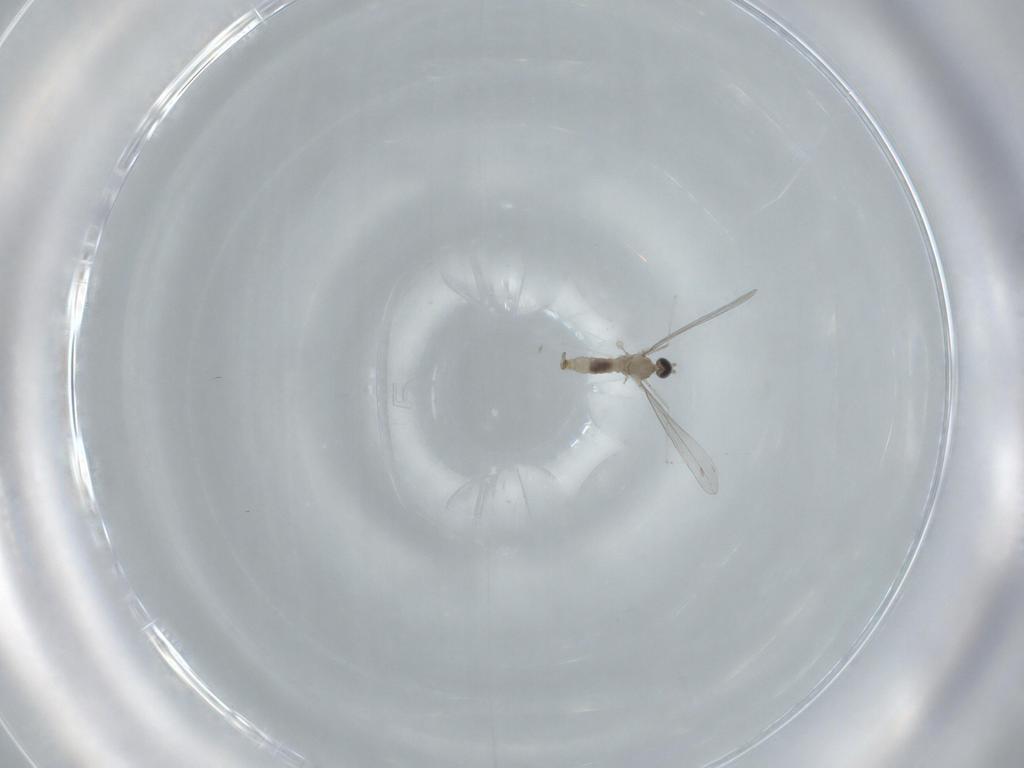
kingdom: Animalia
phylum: Arthropoda
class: Insecta
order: Diptera
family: Cecidomyiidae
